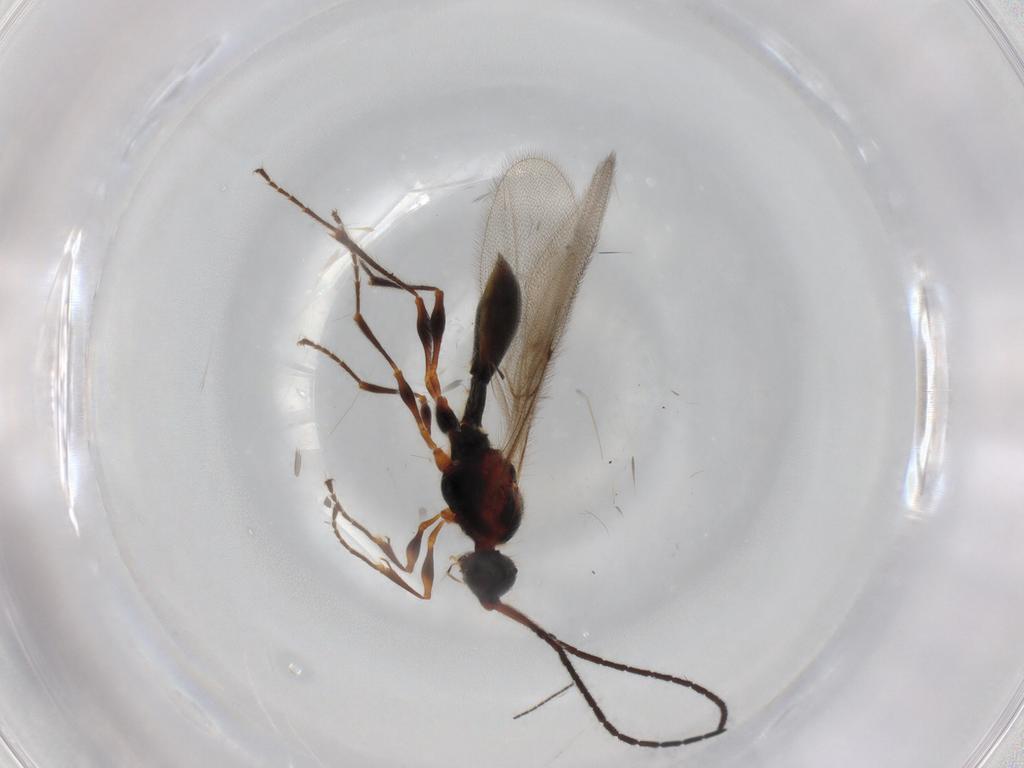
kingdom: Animalia
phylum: Arthropoda
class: Insecta
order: Hymenoptera
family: Diapriidae
